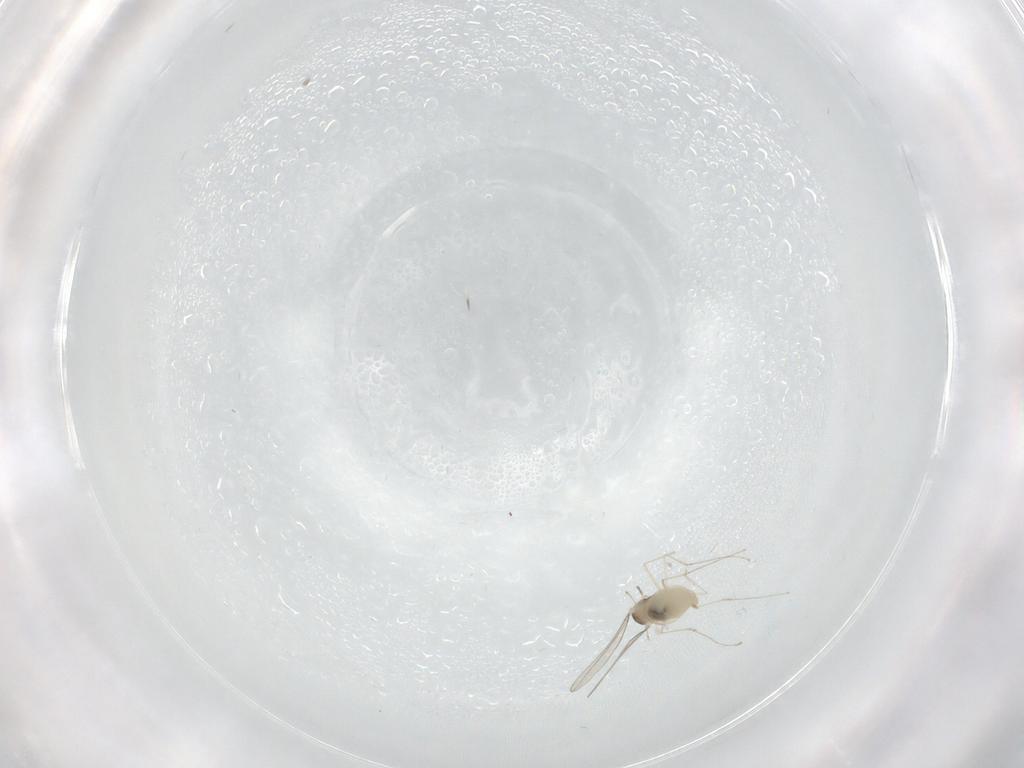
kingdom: Animalia
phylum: Arthropoda
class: Insecta
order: Diptera
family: Cecidomyiidae
